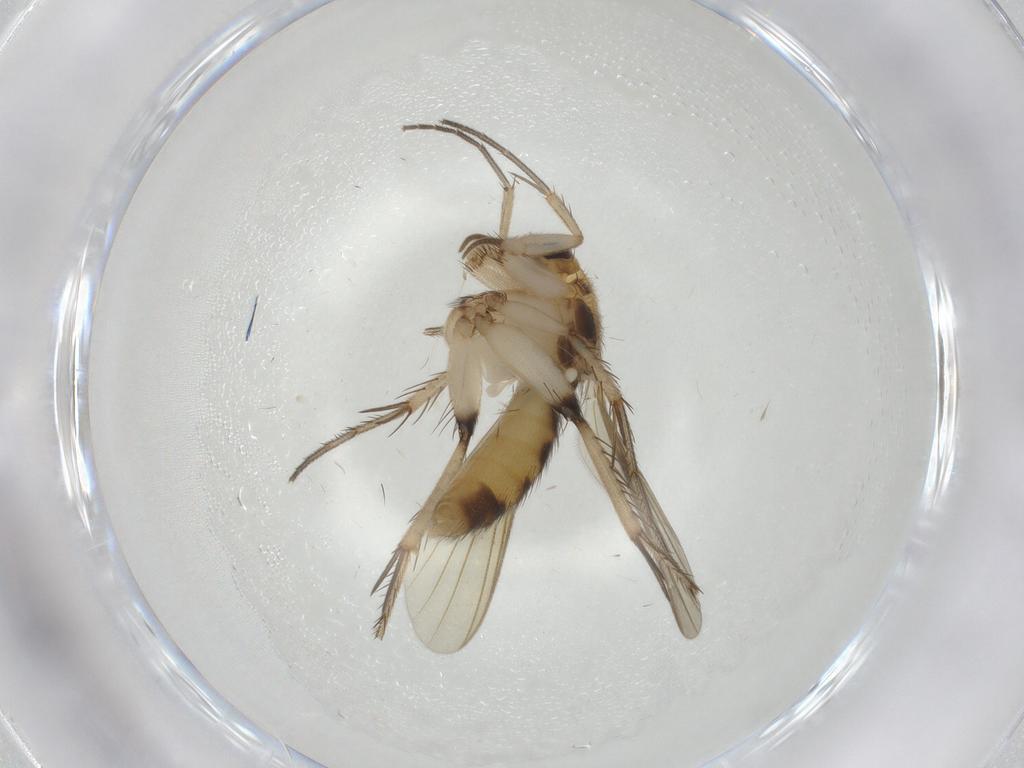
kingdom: Animalia
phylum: Arthropoda
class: Insecta
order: Diptera
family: Mycetophilidae
